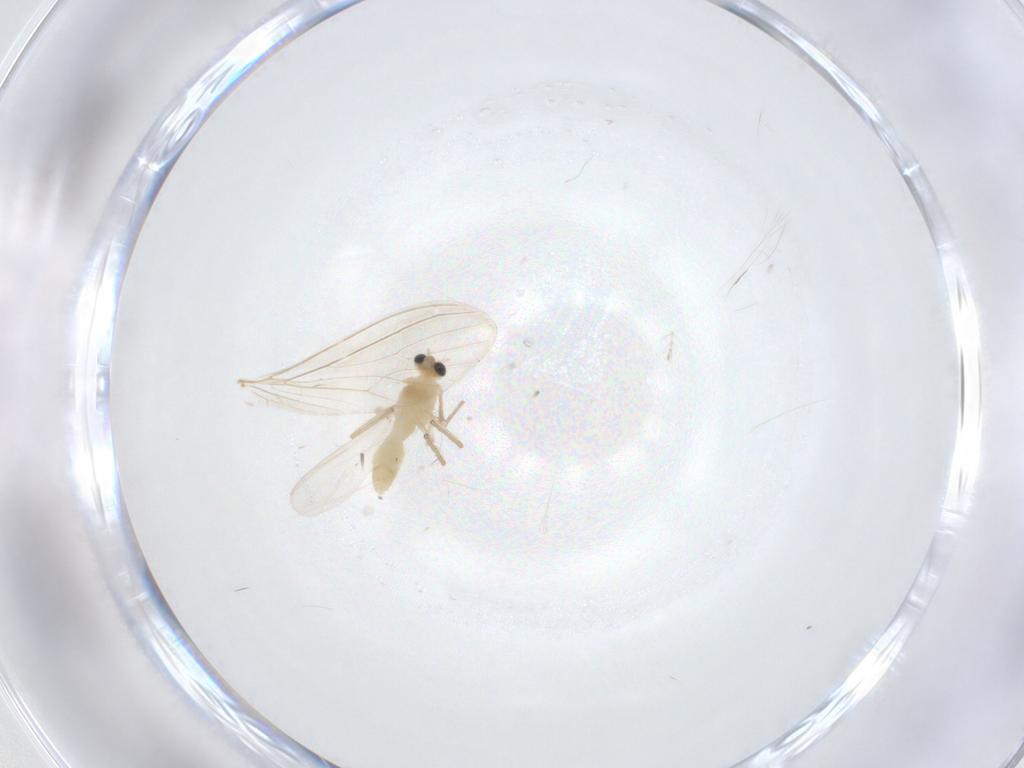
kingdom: Animalia
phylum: Arthropoda
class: Insecta
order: Diptera
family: Chironomidae
